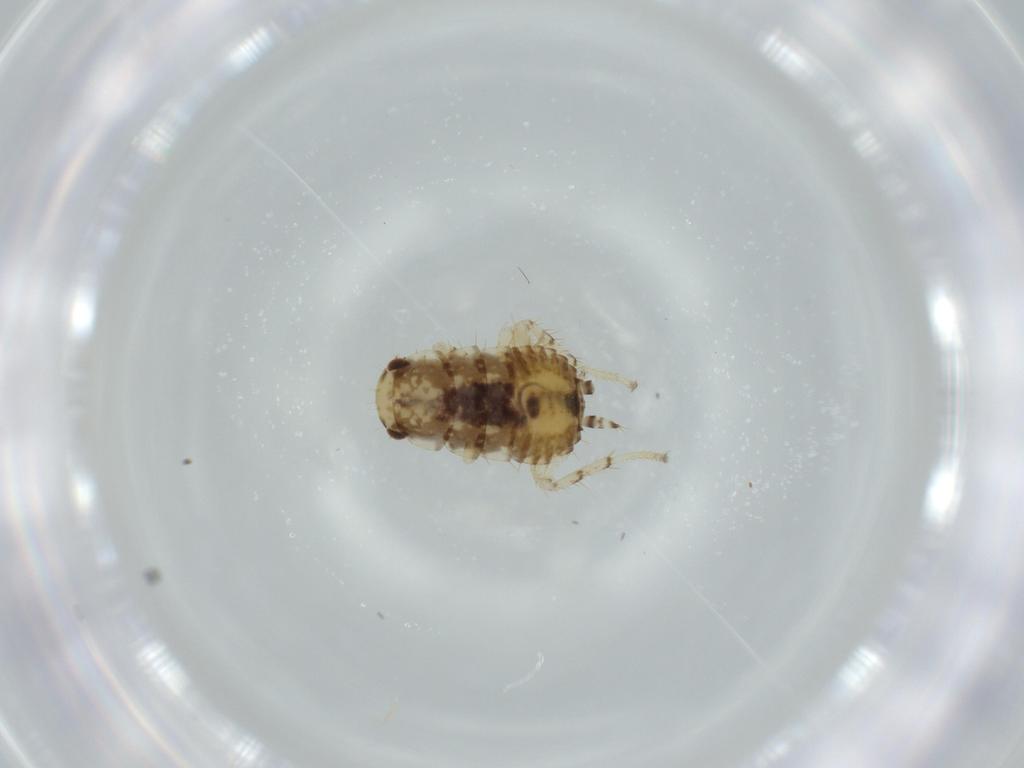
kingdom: Animalia
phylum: Arthropoda
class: Insecta
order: Blattodea
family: Ectobiidae
